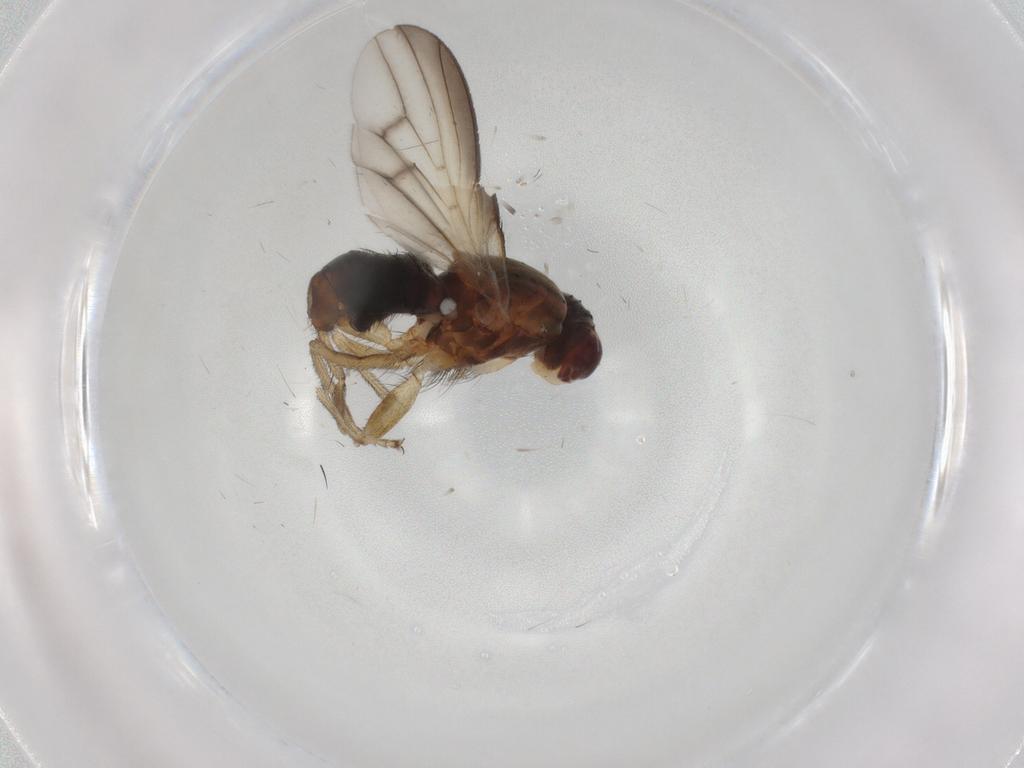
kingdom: Animalia
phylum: Arthropoda
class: Insecta
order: Diptera
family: Heleomyzidae
